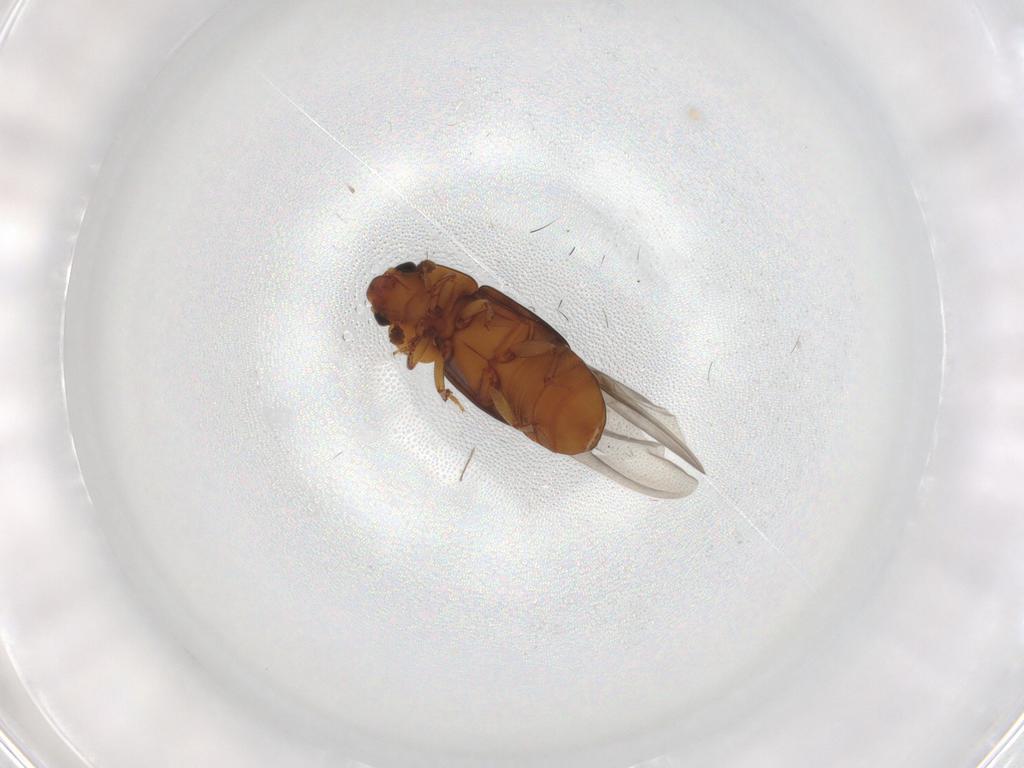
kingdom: Animalia
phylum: Arthropoda
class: Insecta
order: Coleoptera
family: Nitidulidae
